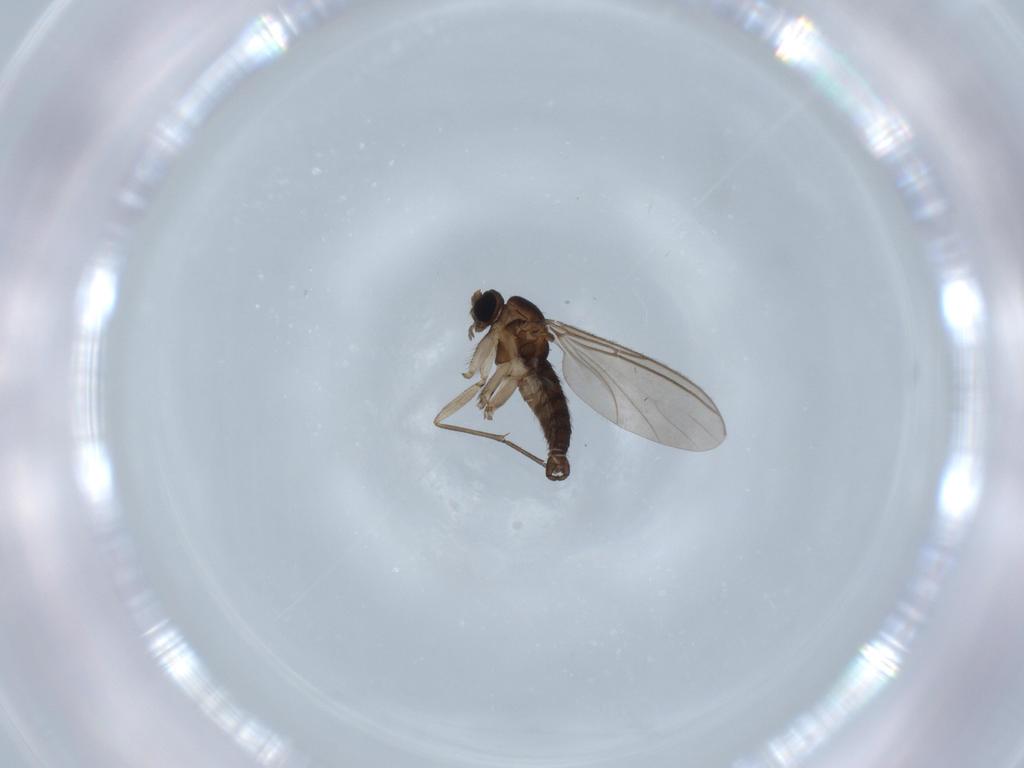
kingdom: Animalia
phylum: Arthropoda
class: Insecta
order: Diptera
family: Sciaridae
